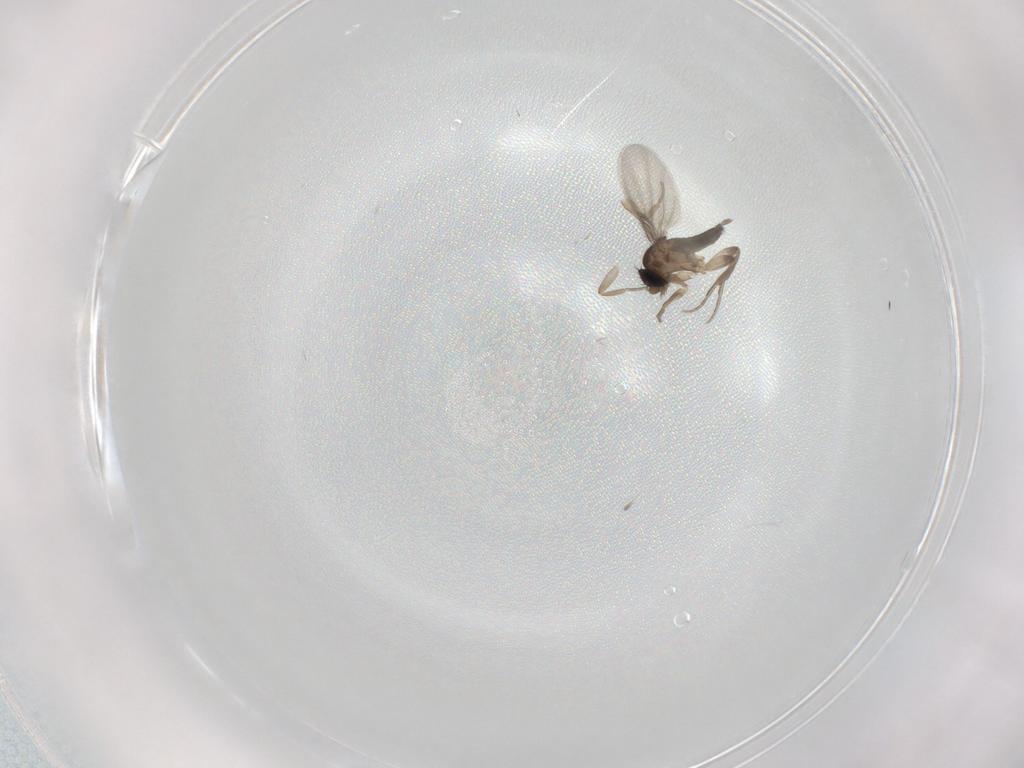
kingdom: Animalia
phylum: Arthropoda
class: Insecta
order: Diptera
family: Phoridae
